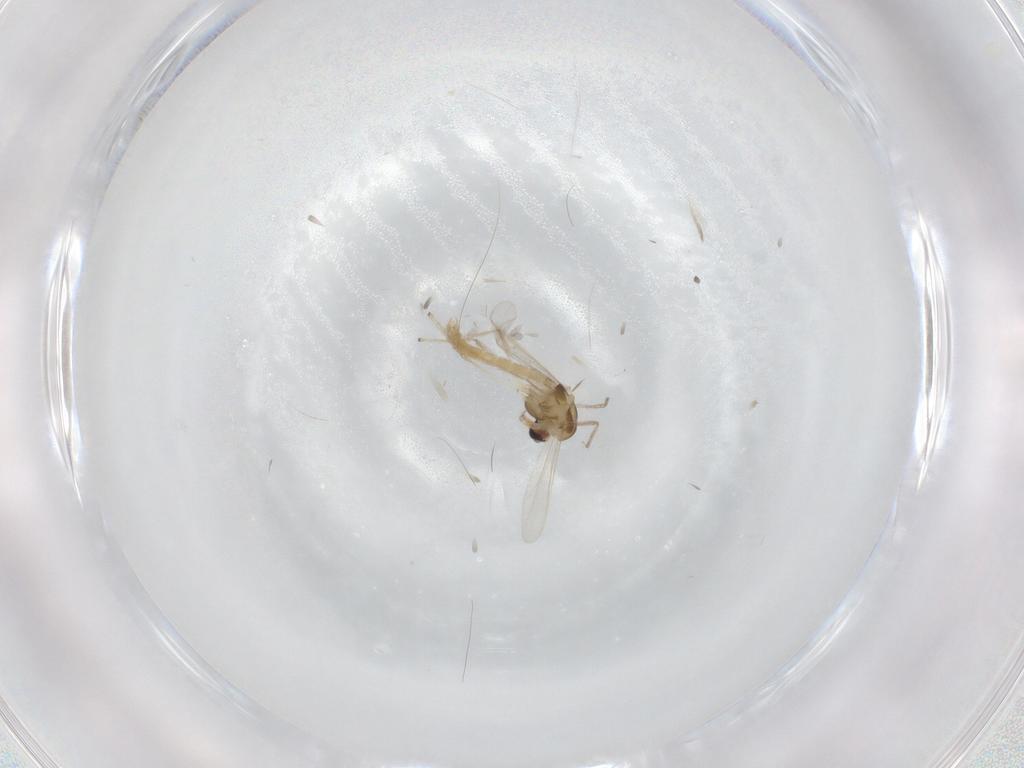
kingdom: Animalia
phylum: Arthropoda
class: Insecta
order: Diptera
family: Chironomidae
